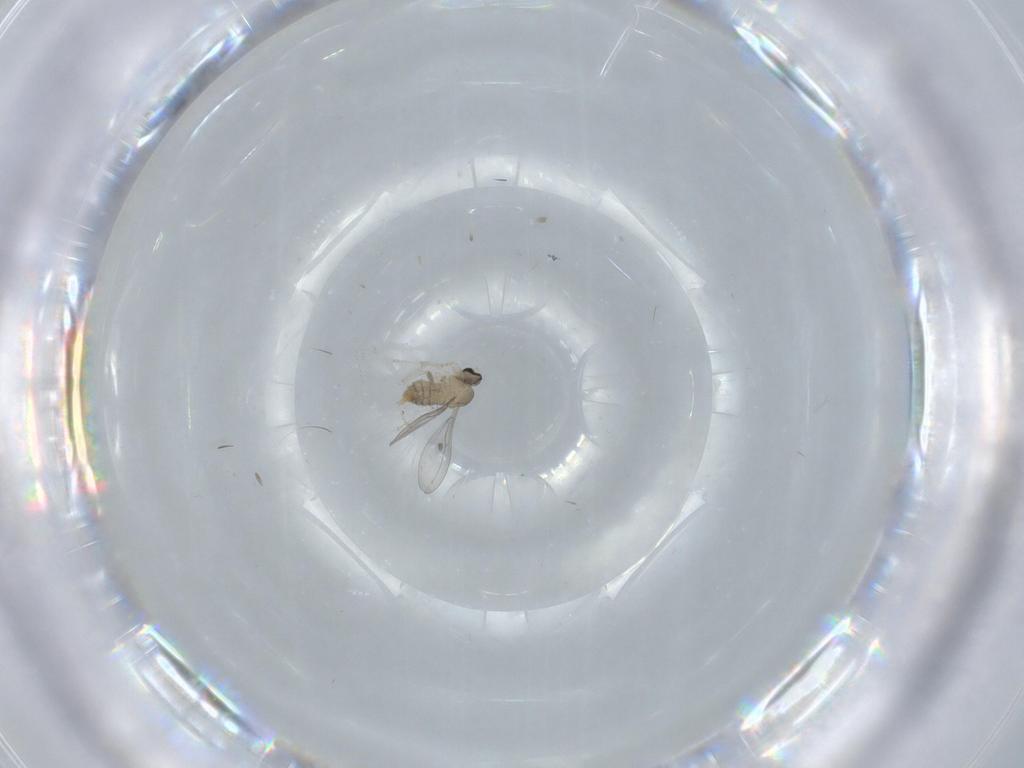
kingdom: Animalia
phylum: Arthropoda
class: Insecta
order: Diptera
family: Cecidomyiidae
